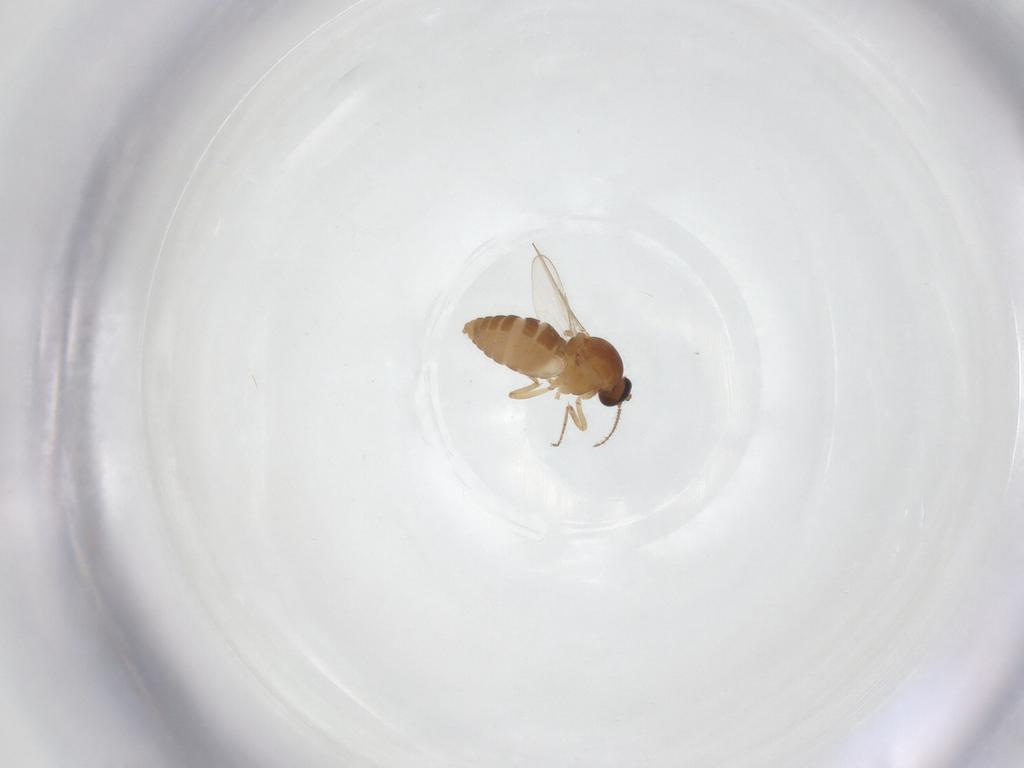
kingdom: Animalia
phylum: Arthropoda
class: Insecta
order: Diptera
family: Ceratopogonidae
